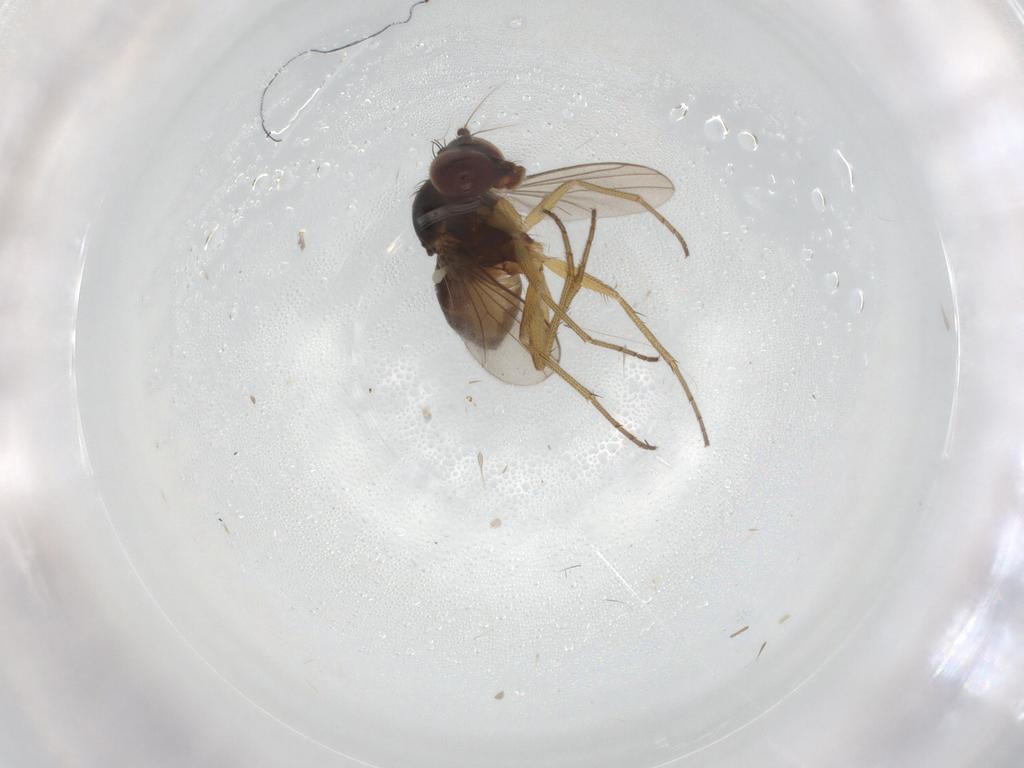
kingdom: Animalia
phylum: Arthropoda
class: Insecta
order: Diptera
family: Dolichopodidae
